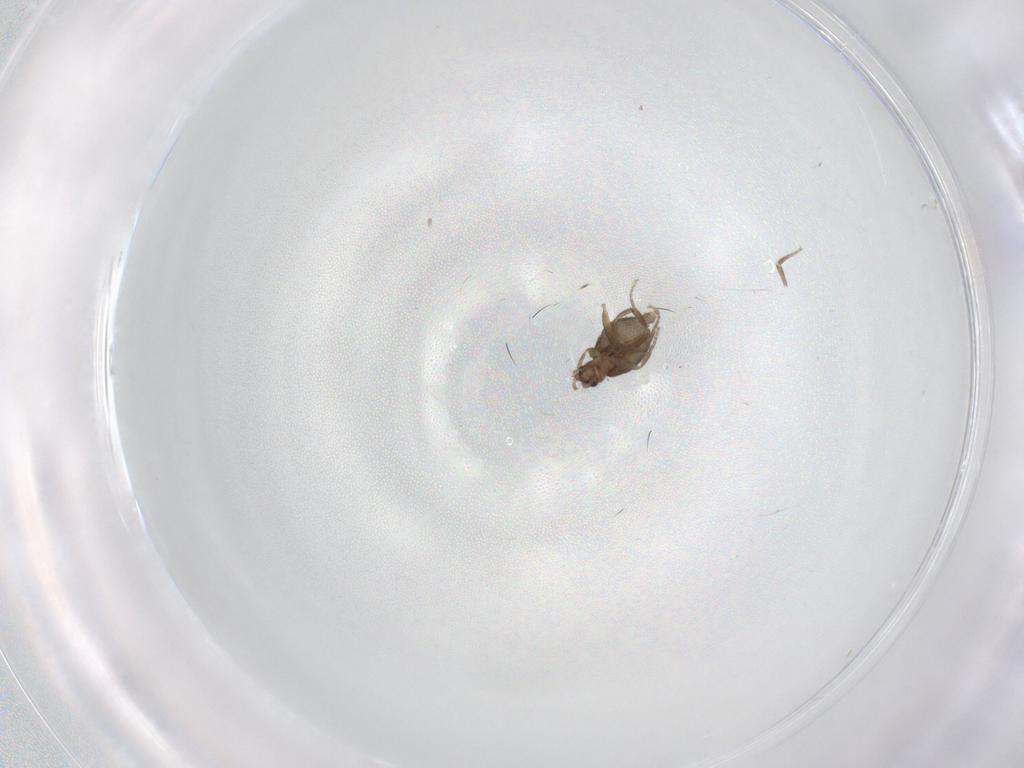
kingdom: Animalia
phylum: Arthropoda
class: Insecta
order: Diptera
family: Chironomidae
